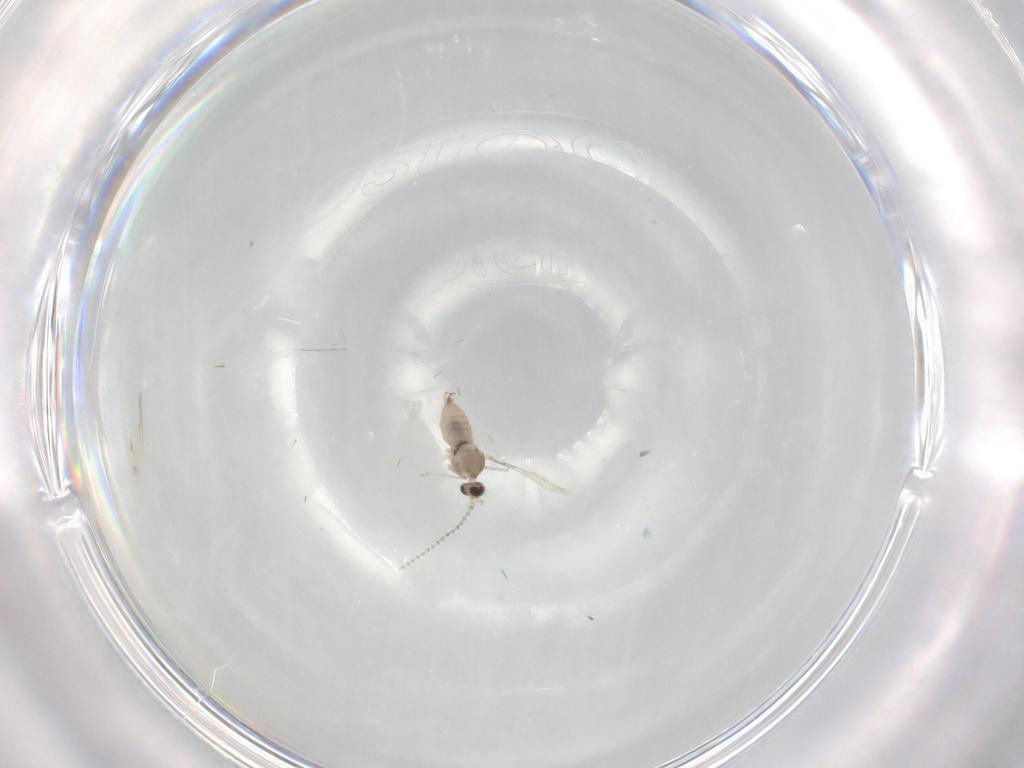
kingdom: Animalia
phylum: Arthropoda
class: Insecta
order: Diptera
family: Cecidomyiidae
